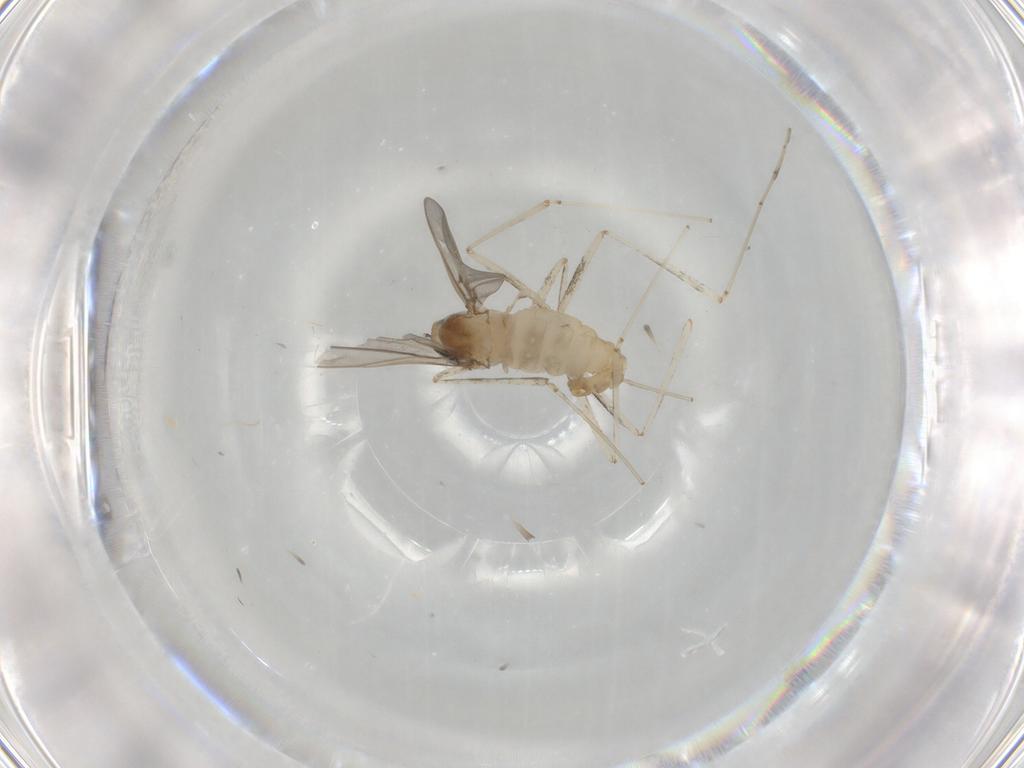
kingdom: Animalia
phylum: Arthropoda
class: Insecta
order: Diptera
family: Cecidomyiidae
